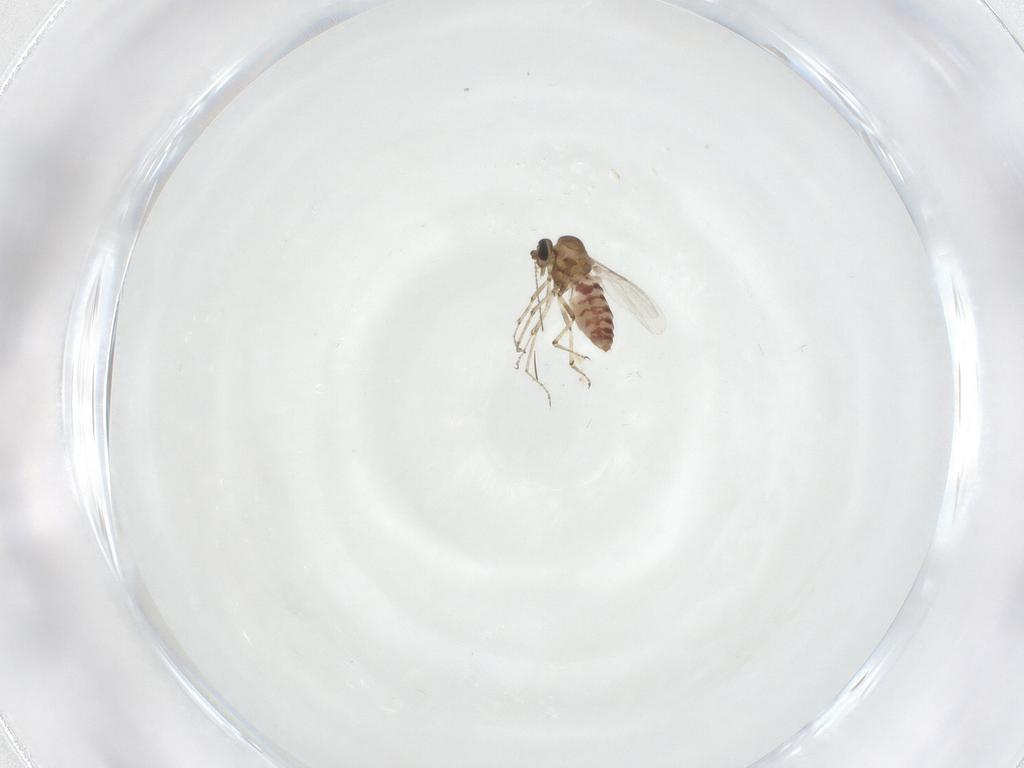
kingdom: Animalia
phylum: Arthropoda
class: Insecta
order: Diptera
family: Ceratopogonidae
